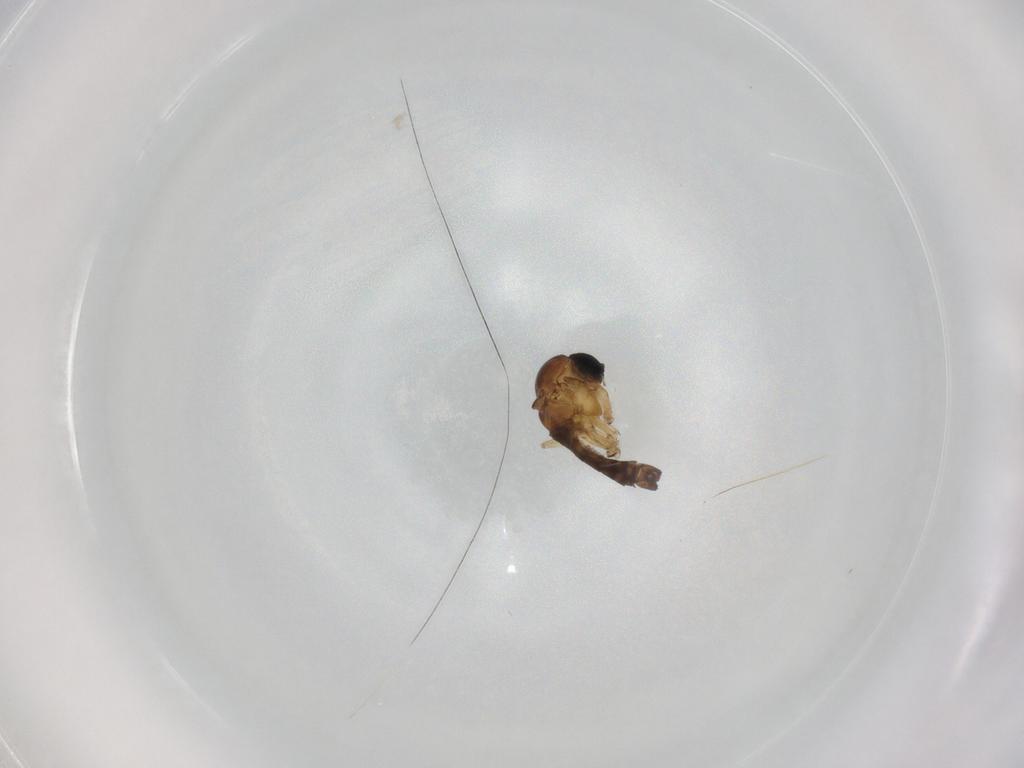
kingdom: Animalia
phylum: Arthropoda
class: Insecta
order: Diptera
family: Sciaridae
